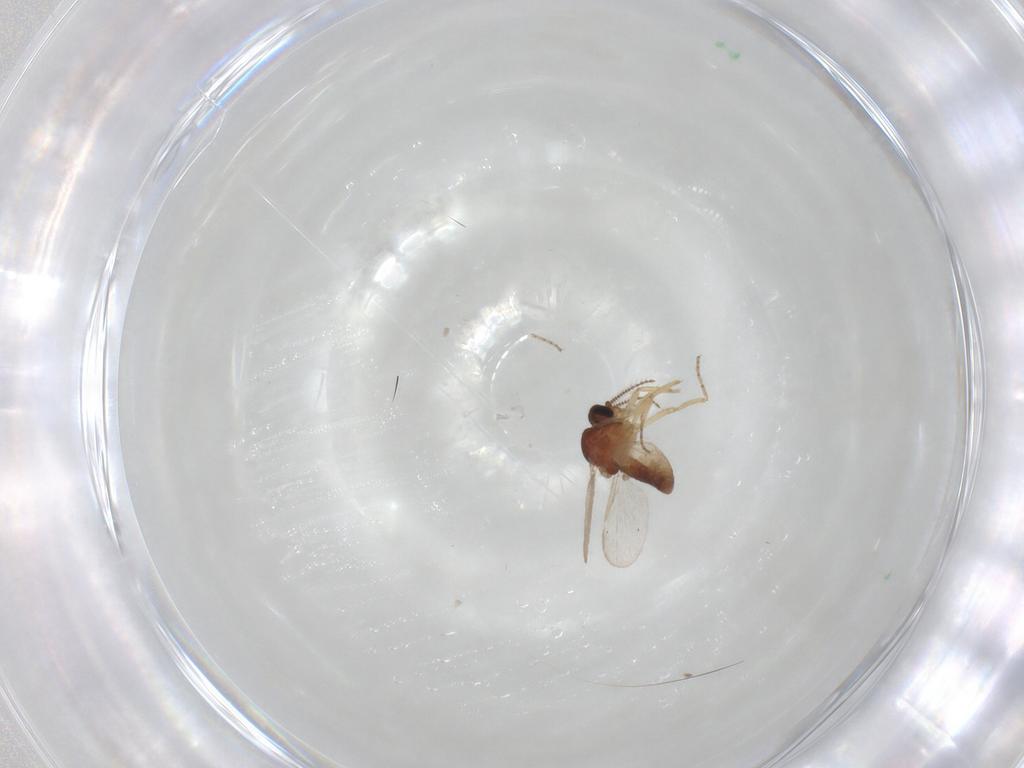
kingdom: Animalia
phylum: Arthropoda
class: Insecta
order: Diptera
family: Ceratopogonidae
